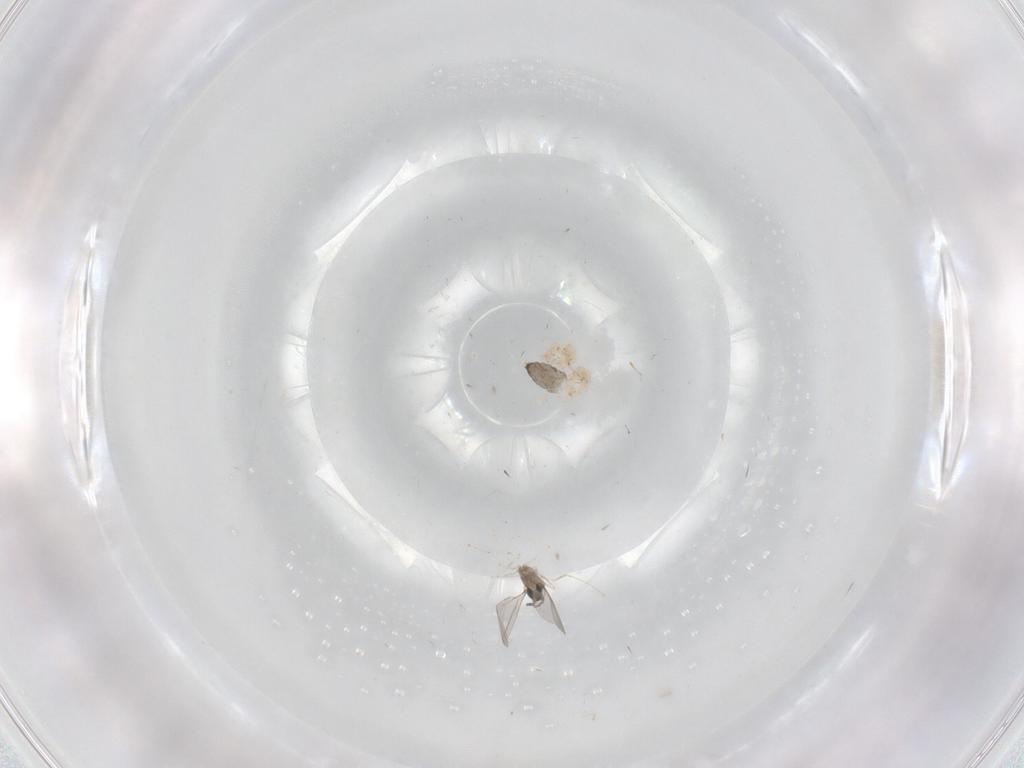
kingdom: Animalia
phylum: Arthropoda
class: Insecta
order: Diptera
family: Cecidomyiidae
